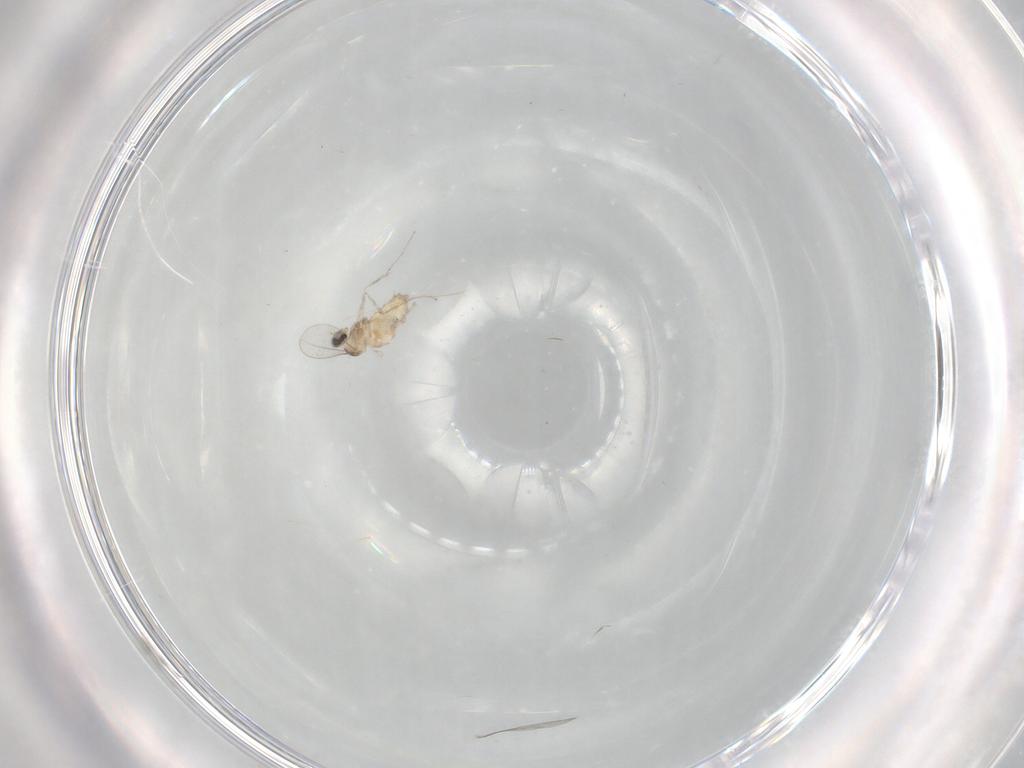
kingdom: Animalia
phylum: Arthropoda
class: Insecta
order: Diptera
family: Cecidomyiidae
